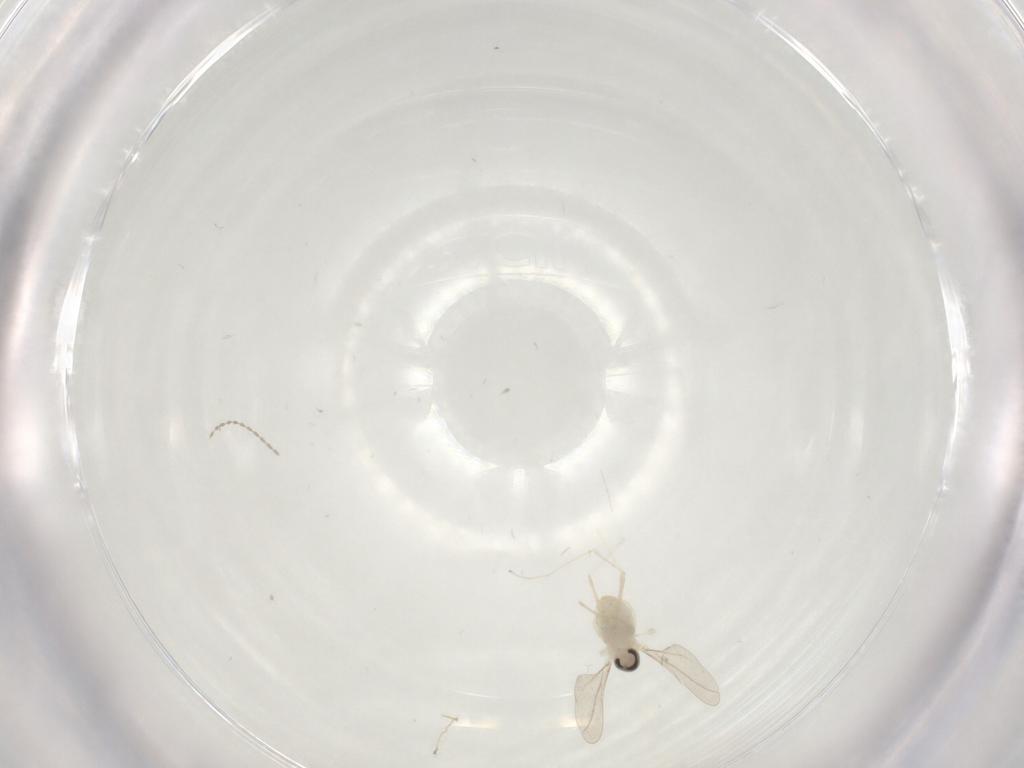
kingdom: Animalia
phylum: Arthropoda
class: Insecta
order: Diptera
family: Cecidomyiidae
